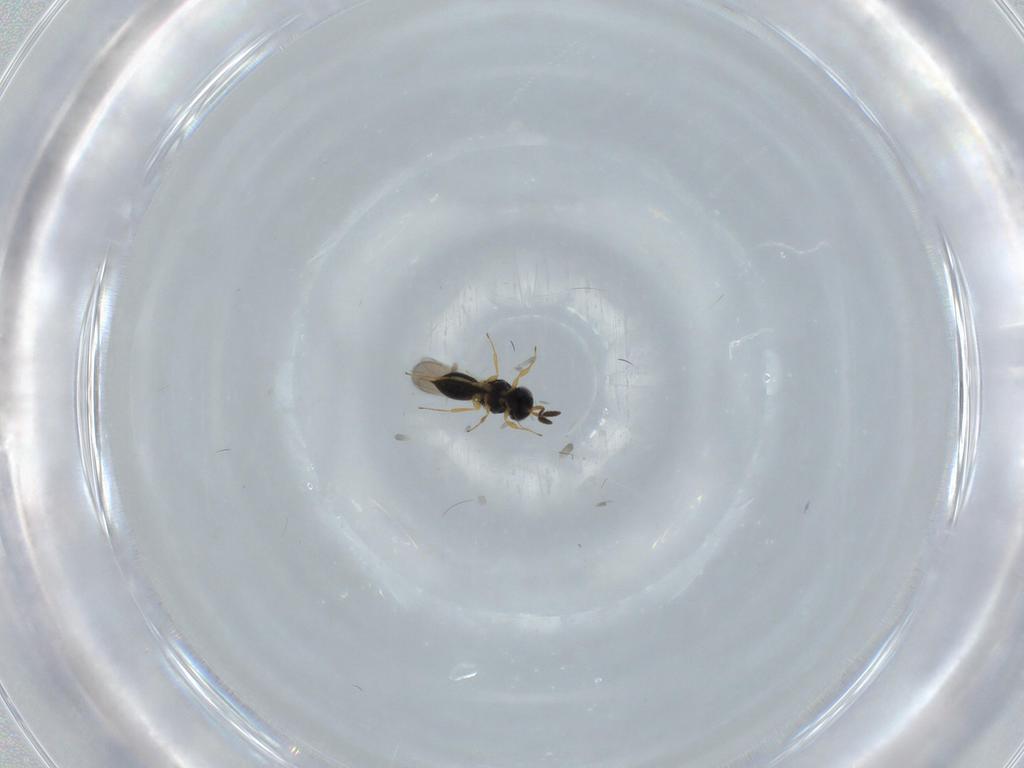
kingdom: Animalia
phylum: Arthropoda
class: Insecta
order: Hymenoptera
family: Scelionidae
